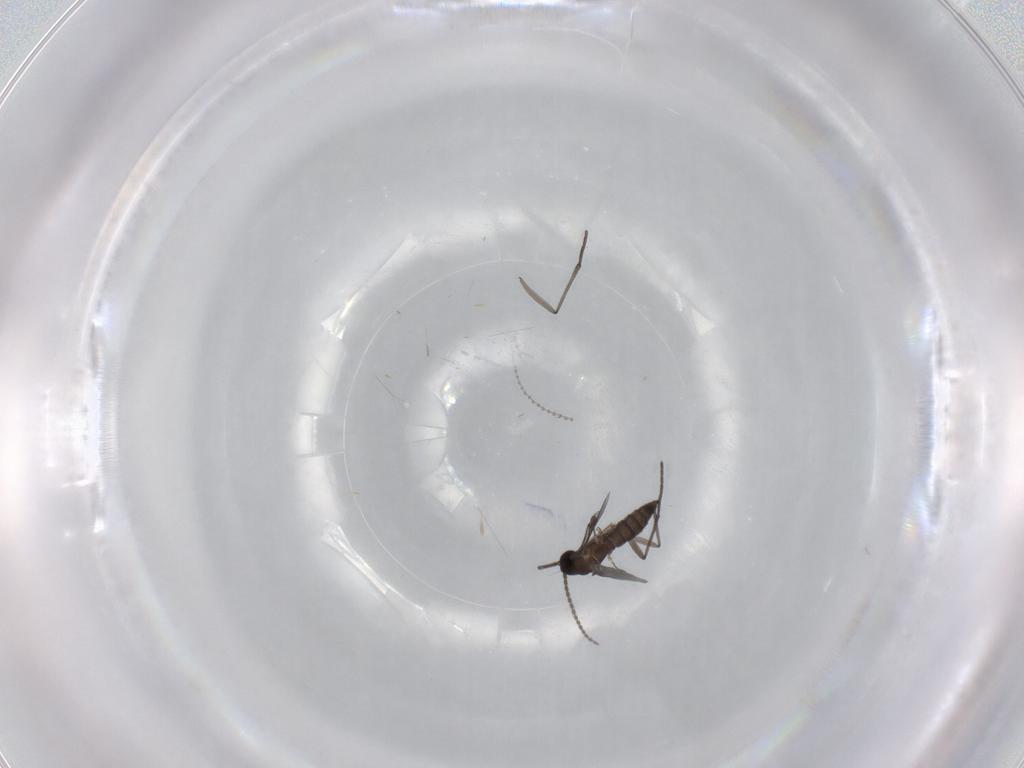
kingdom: Animalia
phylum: Arthropoda
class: Insecta
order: Diptera
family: Cecidomyiidae
